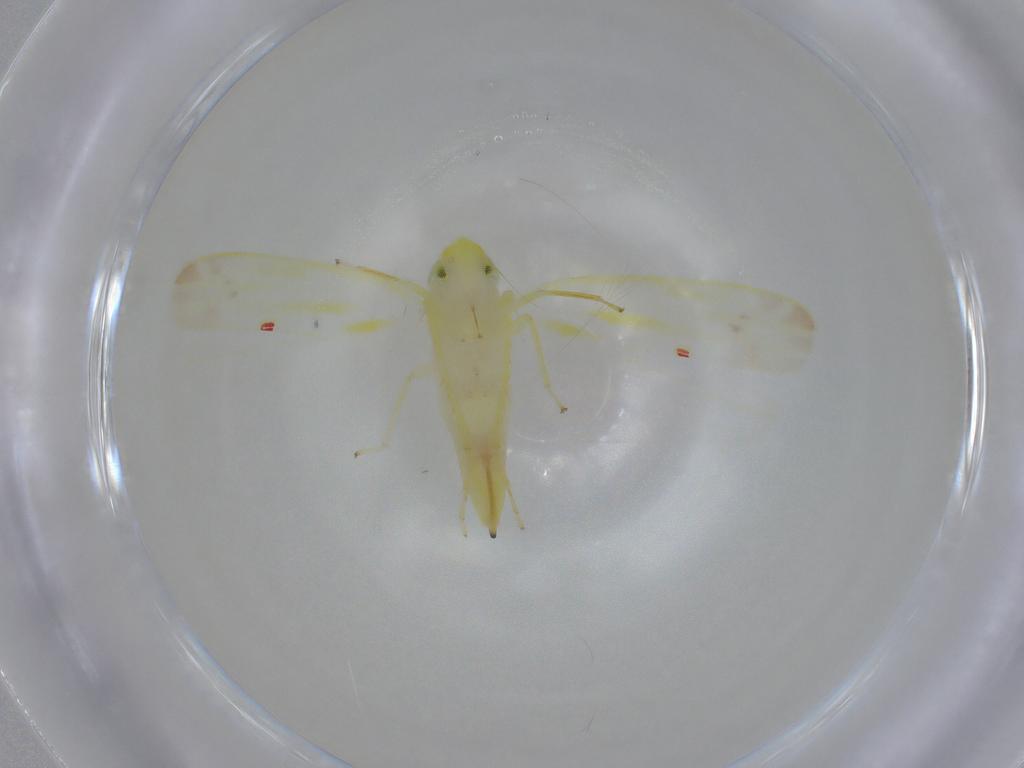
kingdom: Animalia
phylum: Arthropoda
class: Insecta
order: Hemiptera
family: Cicadellidae
